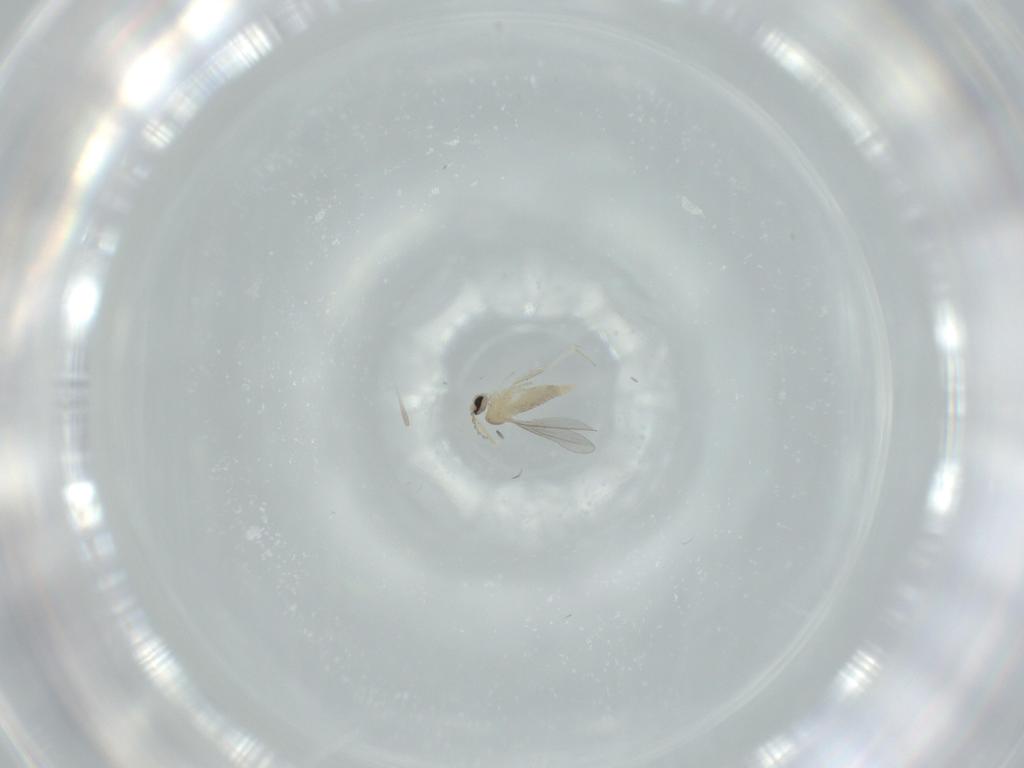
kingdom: Animalia
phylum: Arthropoda
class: Insecta
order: Diptera
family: Cecidomyiidae
